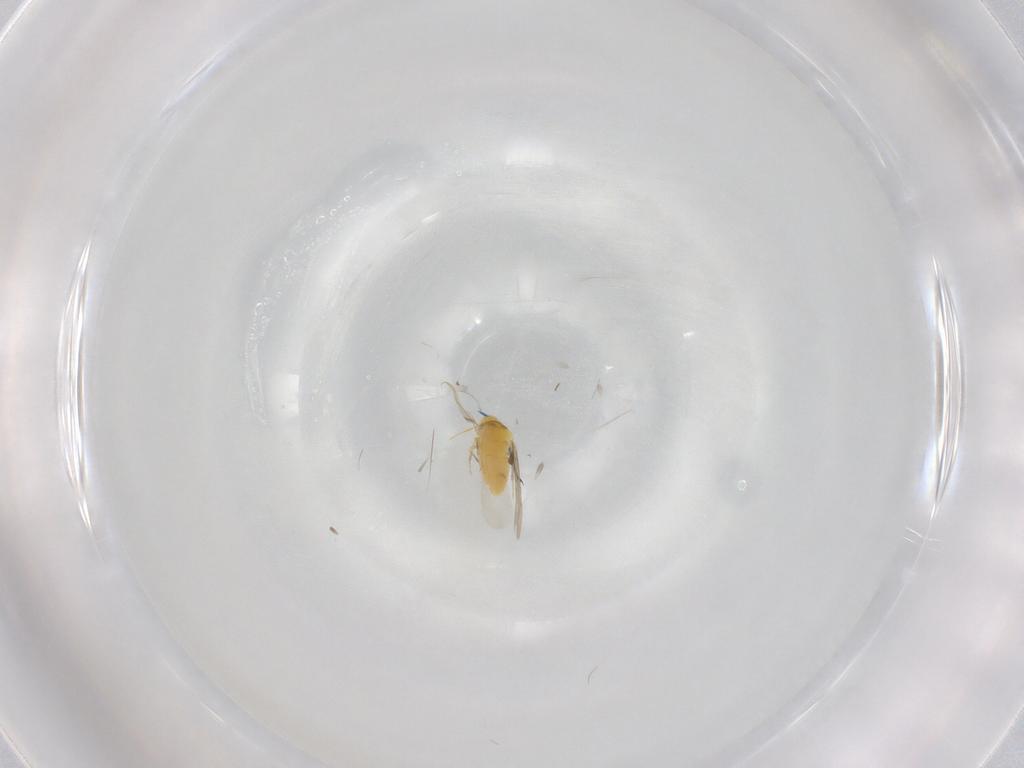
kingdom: Animalia
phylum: Arthropoda
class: Insecta
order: Hemiptera
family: Aleyrodidae
